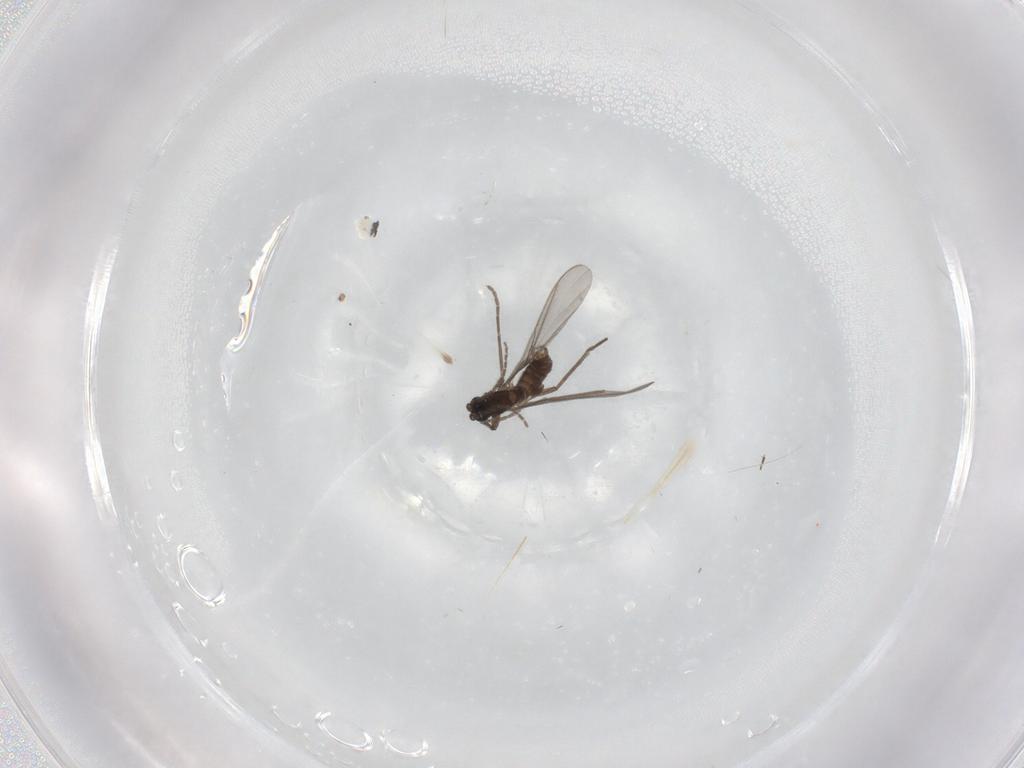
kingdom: Animalia
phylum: Arthropoda
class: Insecta
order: Diptera
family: Sciaridae
